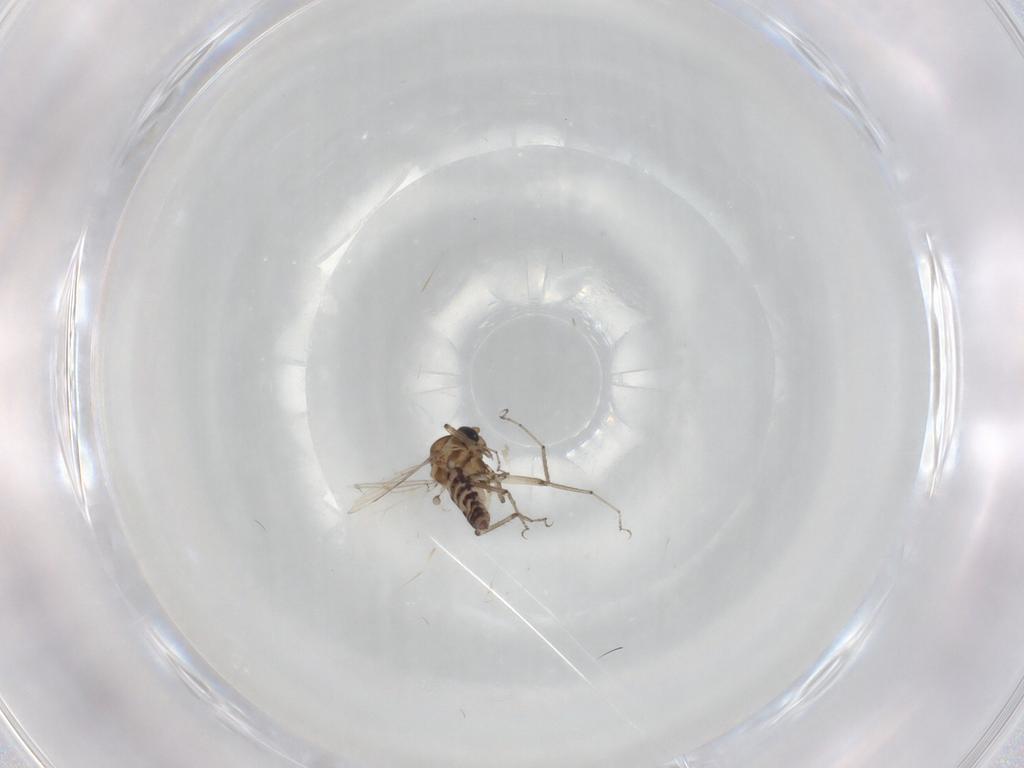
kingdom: Animalia
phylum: Arthropoda
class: Insecta
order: Diptera
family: Ceratopogonidae
